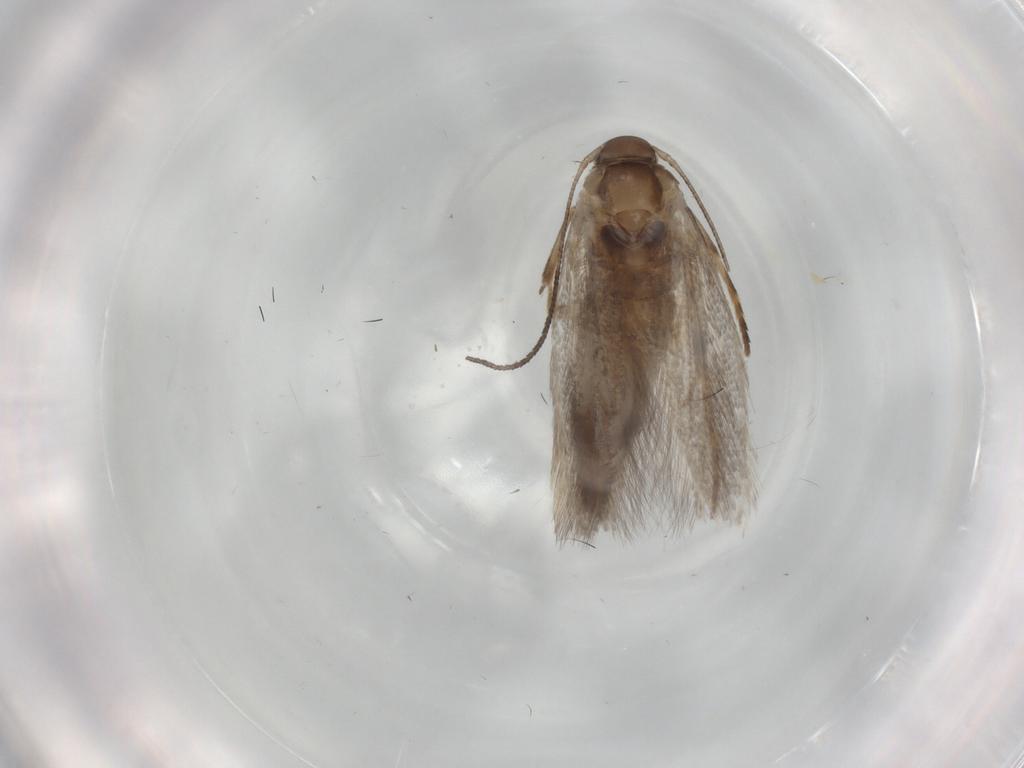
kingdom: Animalia
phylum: Arthropoda
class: Insecta
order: Lepidoptera
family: Elachistidae
